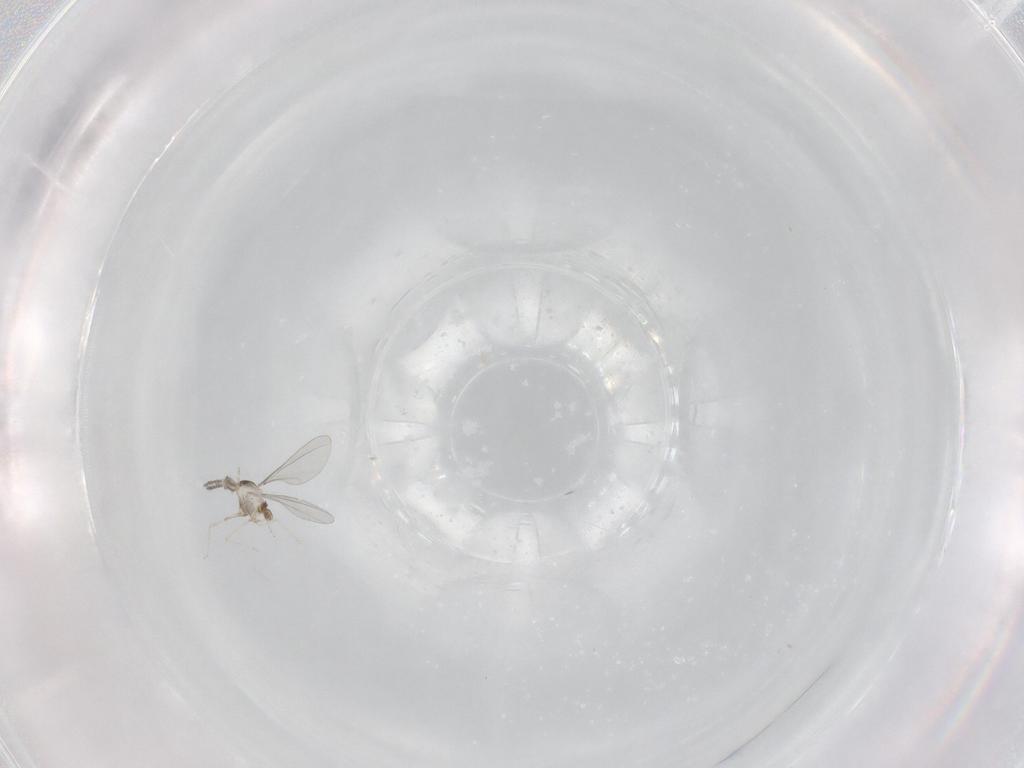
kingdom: Animalia
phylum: Arthropoda
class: Insecta
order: Diptera
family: Cecidomyiidae
